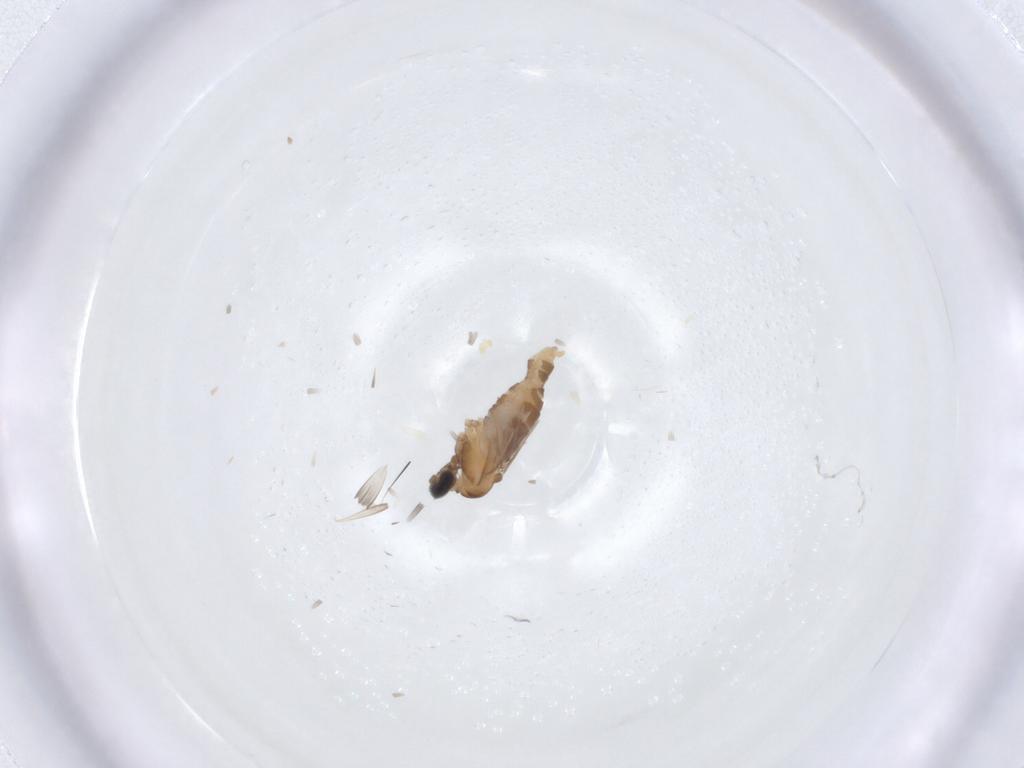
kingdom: Animalia
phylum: Arthropoda
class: Insecta
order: Diptera
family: Cecidomyiidae
